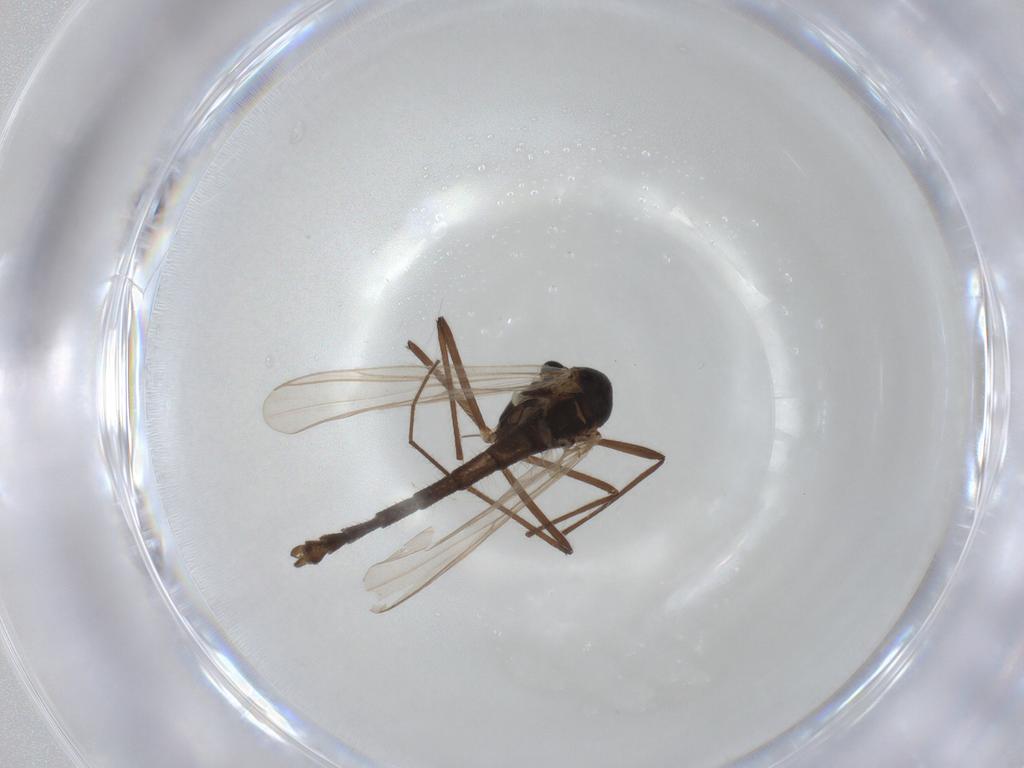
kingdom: Animalia
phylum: Arthropoda
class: Insecta
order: Diptera
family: Chironomidae
